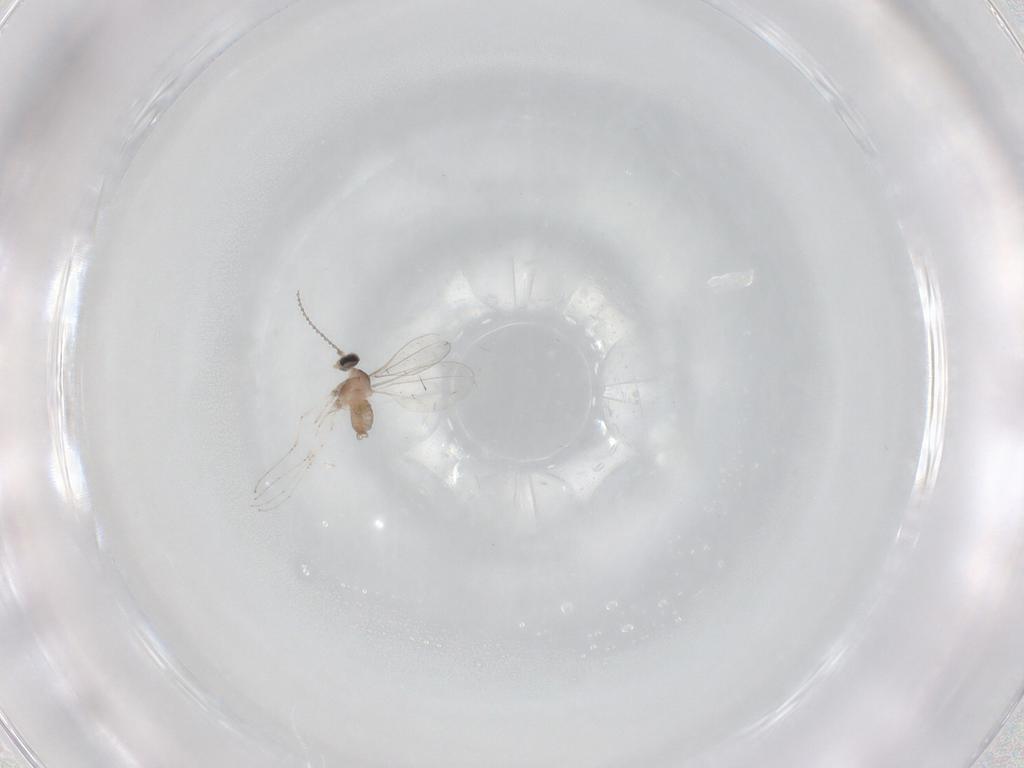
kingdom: Animalia
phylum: Arthropoda
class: Insecta
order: Diptera
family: Cecidomyiidae
